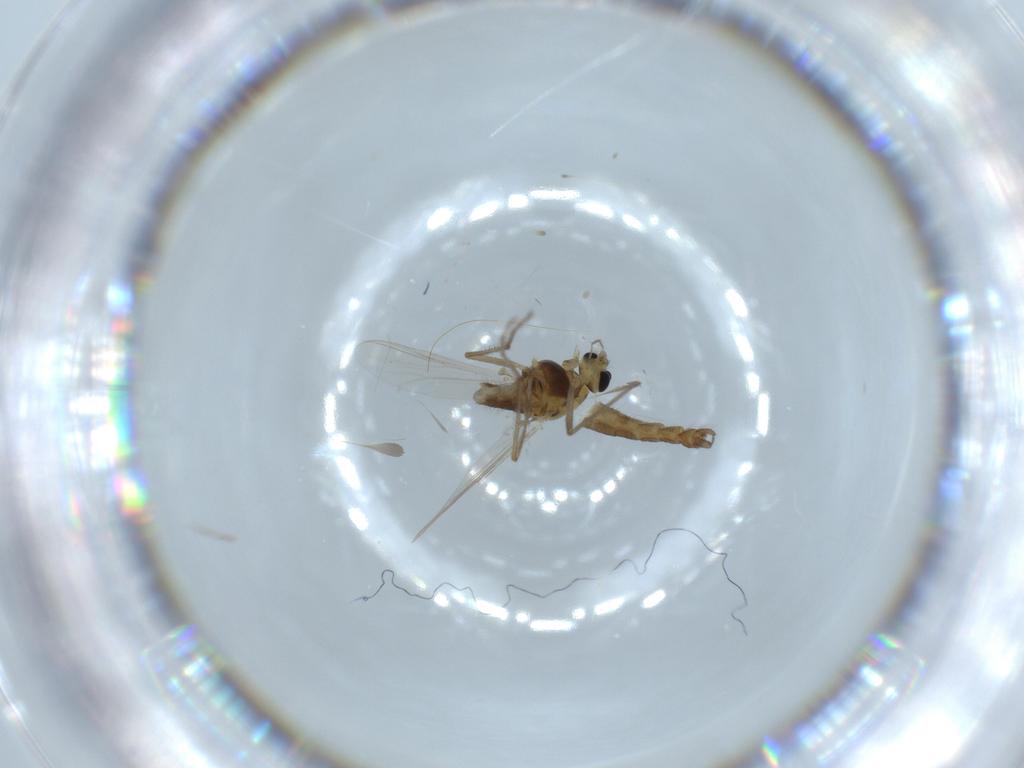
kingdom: Animalia
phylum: Arthropoda
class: Insecta
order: Diptera
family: Chironomidae
